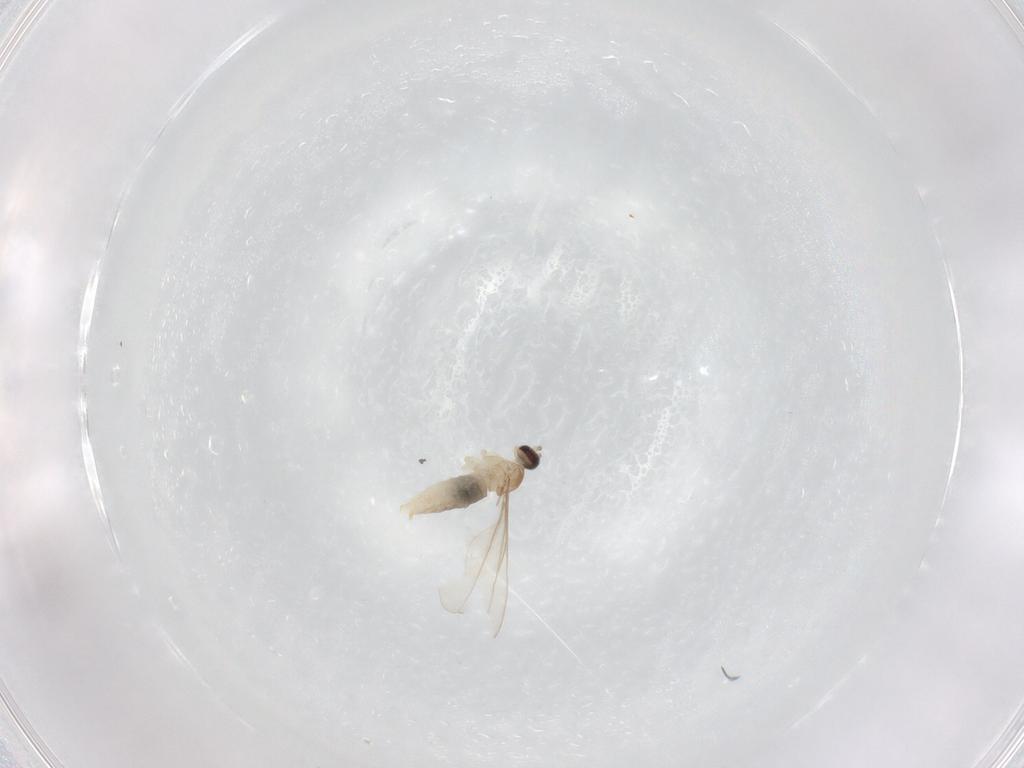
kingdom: Animalia
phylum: Arthropoda
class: Insecta
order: Diptera
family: Cecidomyiidae
